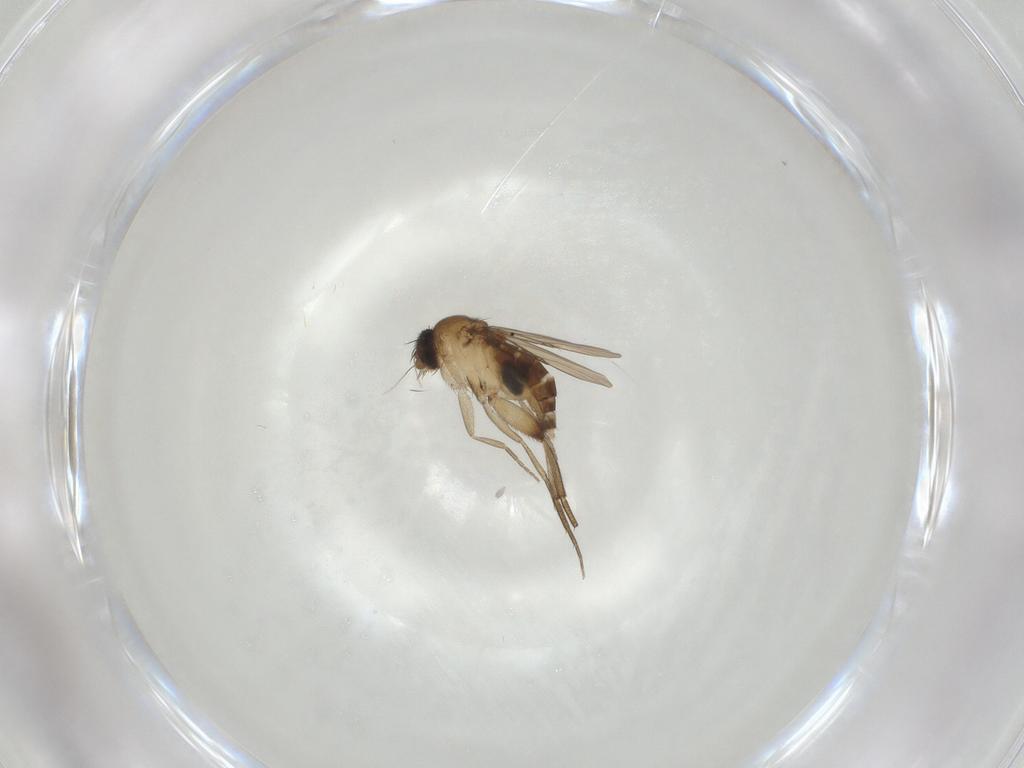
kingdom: Animalia
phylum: Arthropoda
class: Insecta
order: Diptera
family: Phoridae
